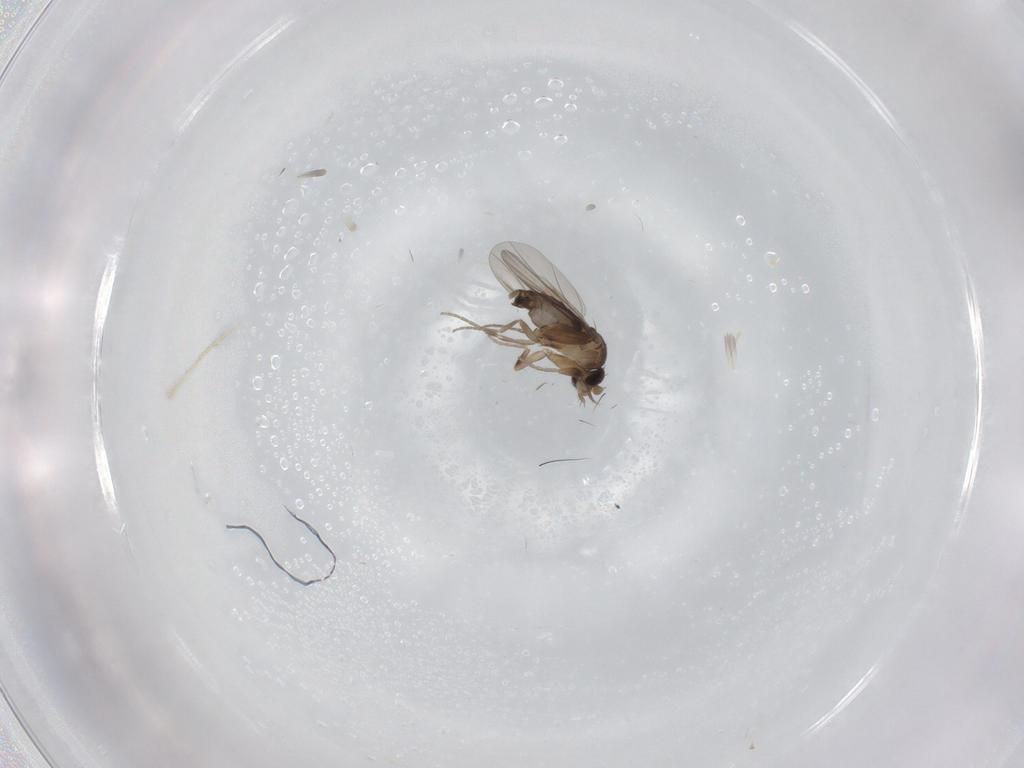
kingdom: Animalia
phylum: Arthropoda
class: Insecta
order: Diptera
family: Phoridae
